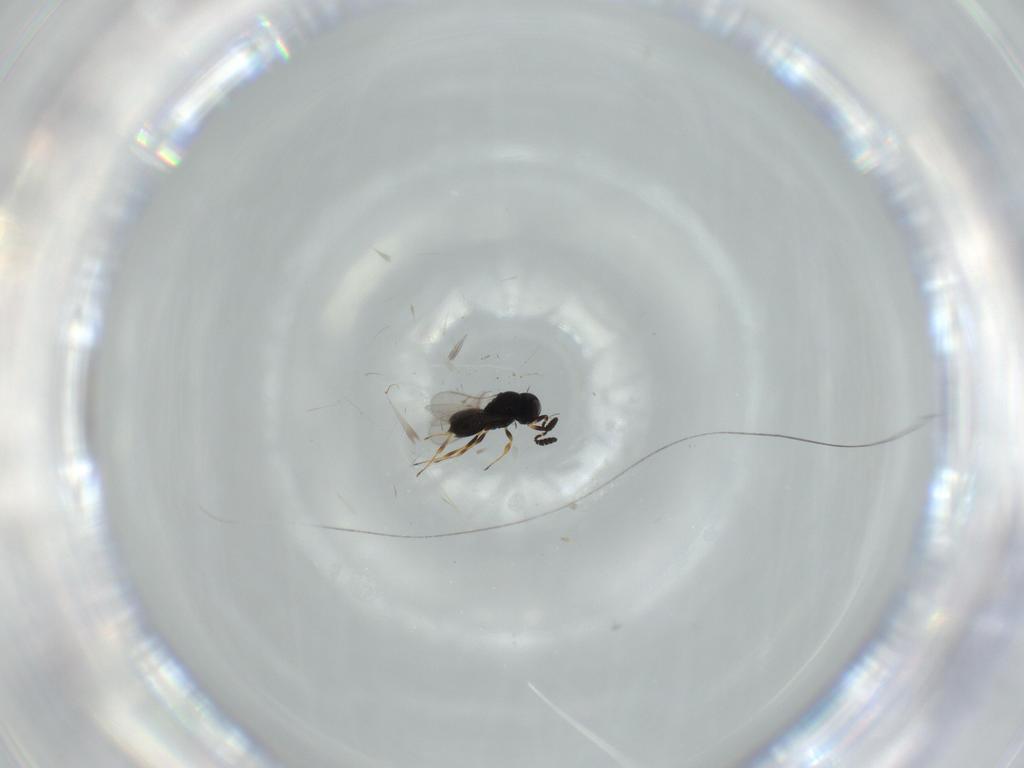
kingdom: Animalia
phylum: Arthropoda
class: Insecta
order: Hymenoptera
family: Scelionidae
